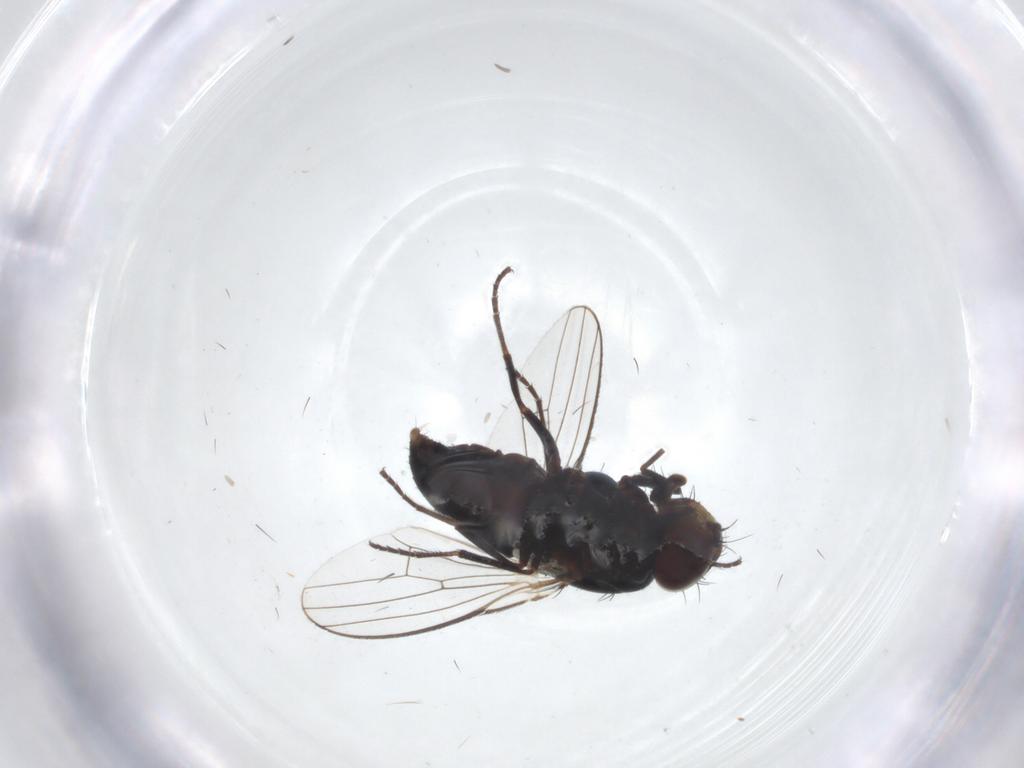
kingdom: Animalia
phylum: Arthropoda
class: Insecta
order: Diptera
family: Carnidae
